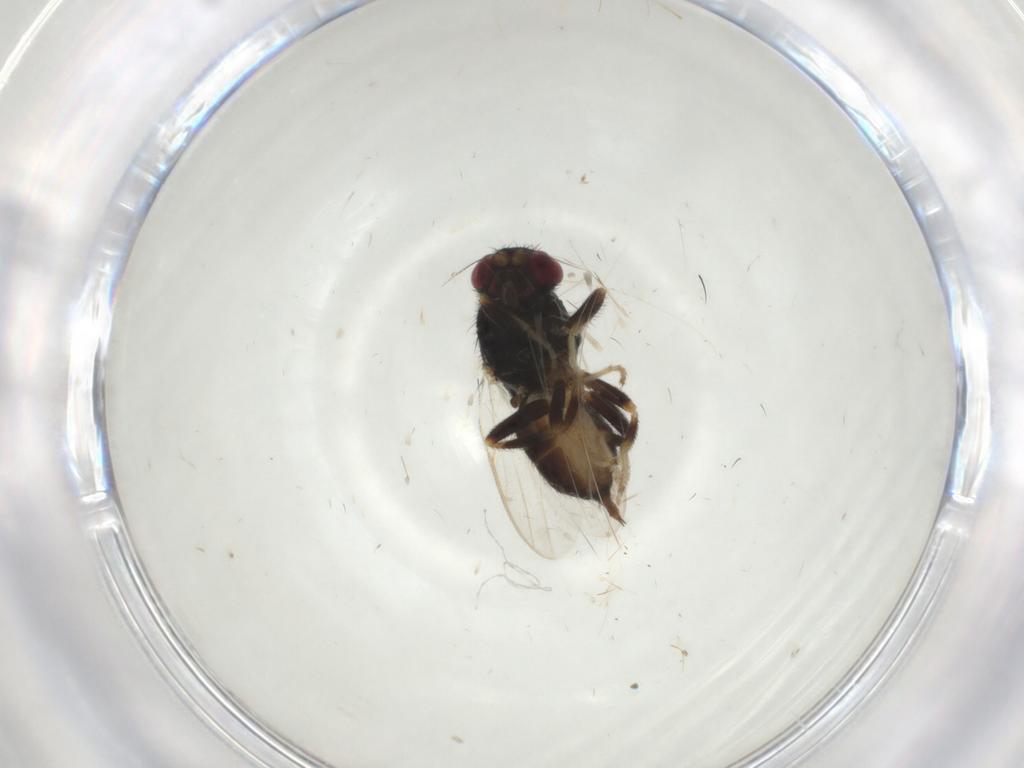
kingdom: Animalia
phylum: Arthropoda
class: Insecta
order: Diptera
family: Chloropidae
